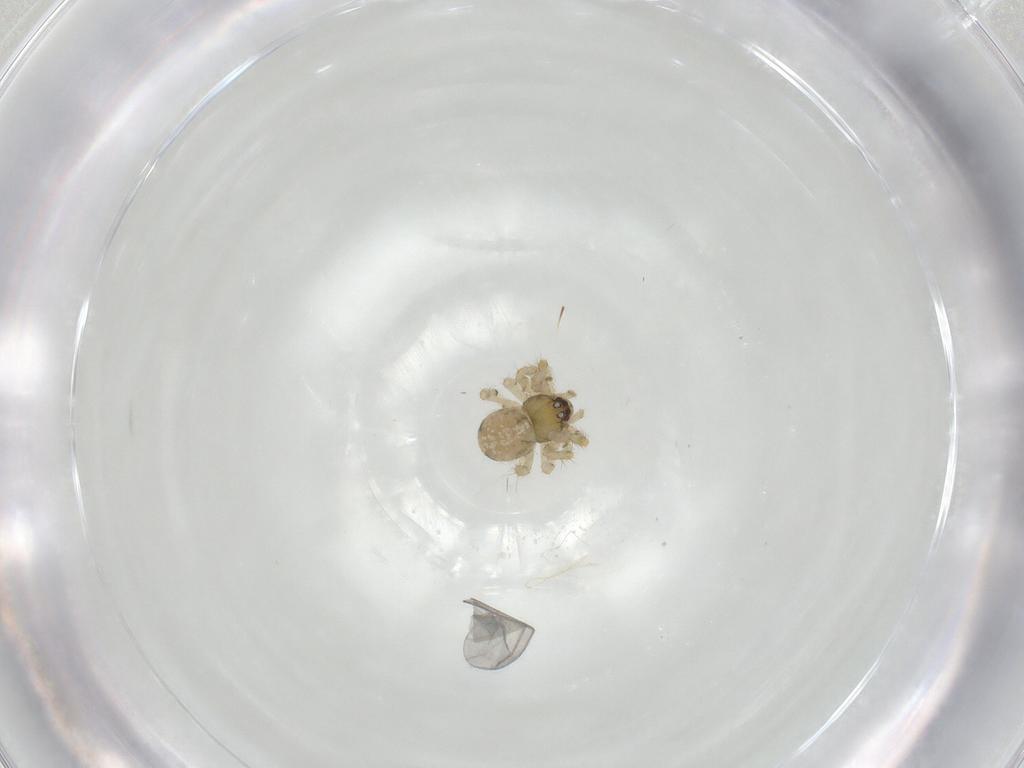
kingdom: Animalia
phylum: Arthropoda
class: Arachnida
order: Araneae
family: Theridiidae
